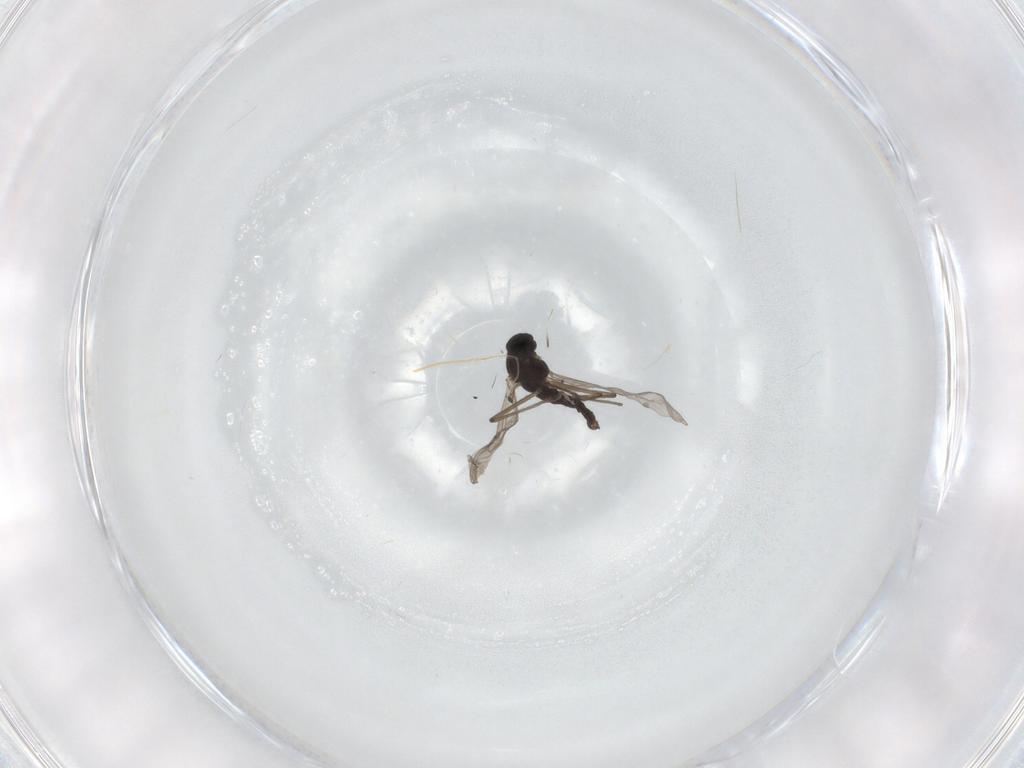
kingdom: Animalia
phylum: Arthropoda
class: Insecta
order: Diptera
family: Chironomidae
